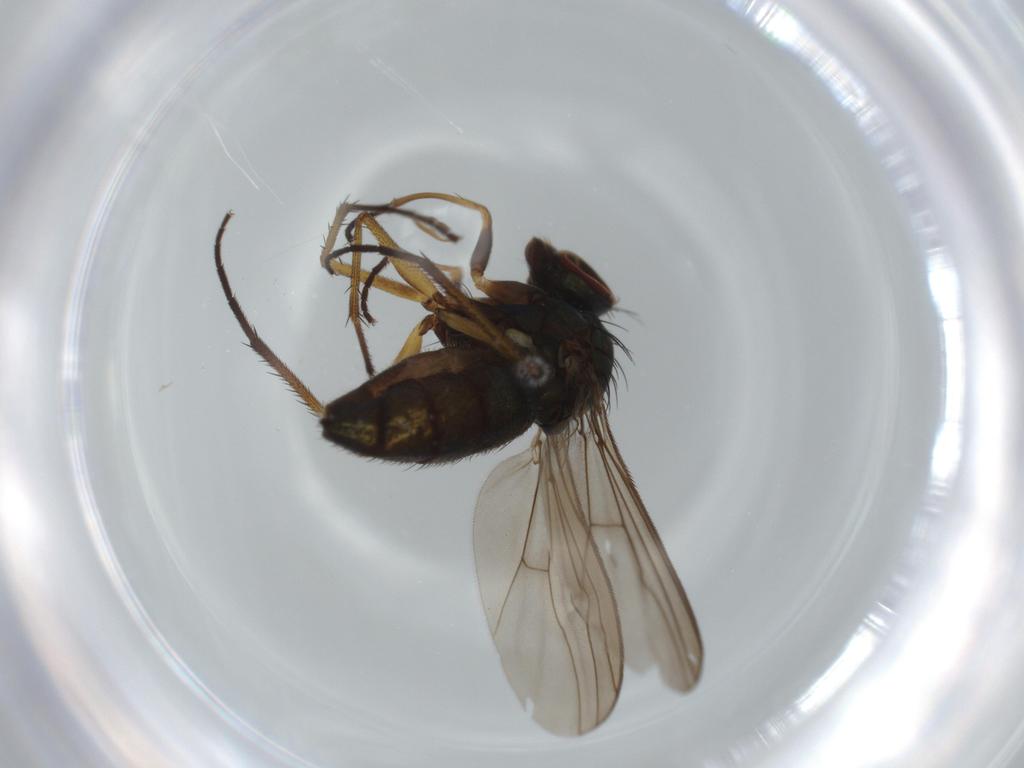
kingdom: Animalia
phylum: Arthropoda
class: Insecta
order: Diptera
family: Dolichopodidae
